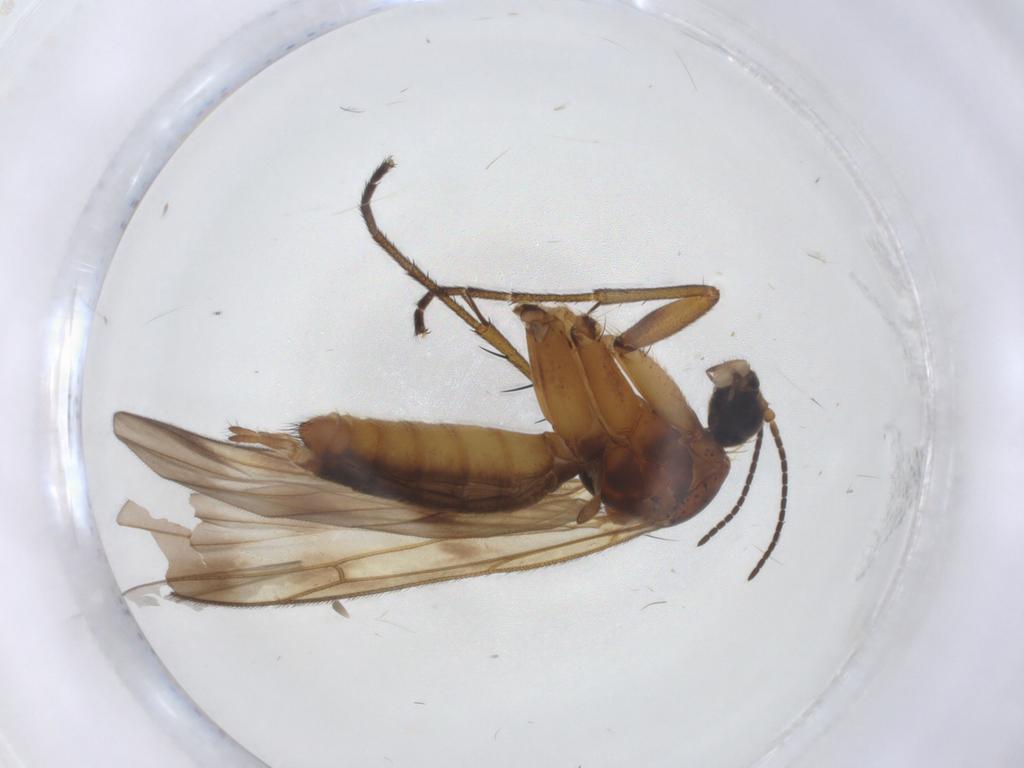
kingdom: Animalia
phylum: Arthropoda
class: Insecta
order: Diptera
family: Mycetophilidae
